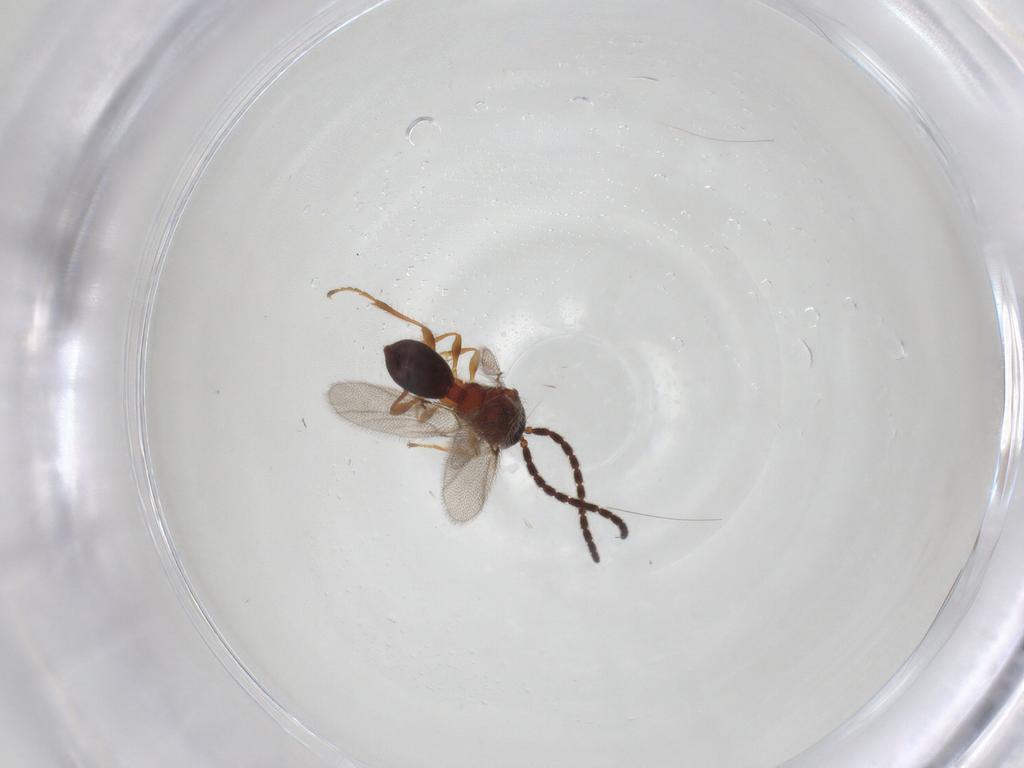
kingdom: Animalia
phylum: Arthropoda
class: Insecta
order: Hymenoptera
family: Diapriidae
